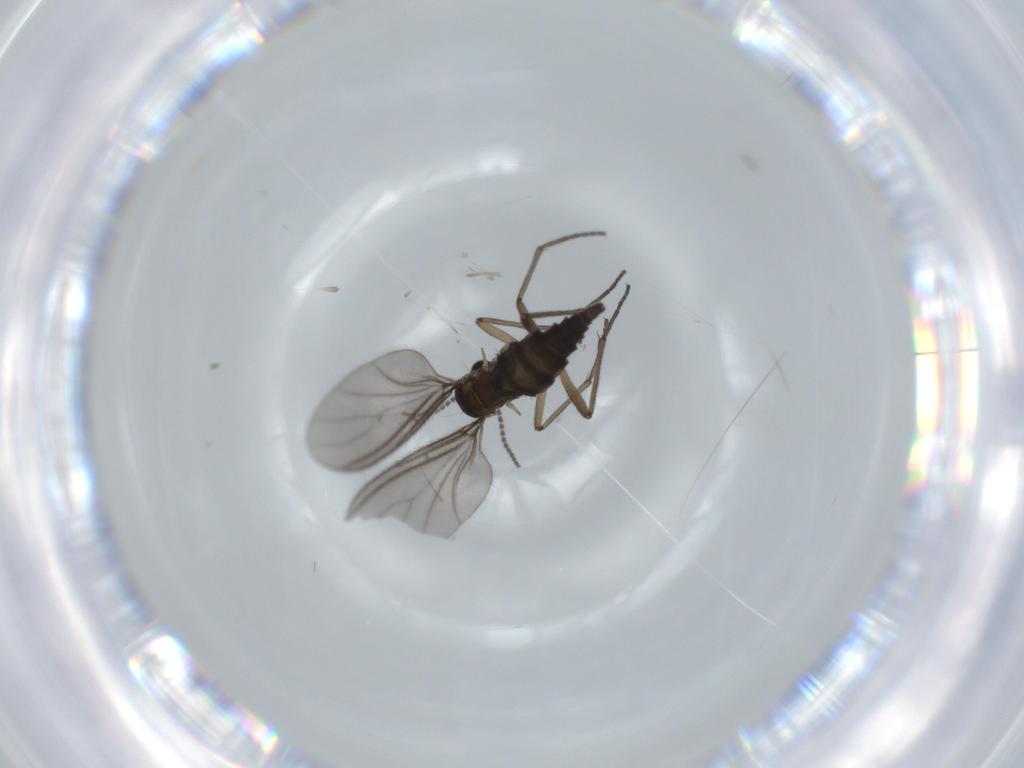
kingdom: Animalia
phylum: Arthropoda
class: Insecta
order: Diptera
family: Sciaridae
